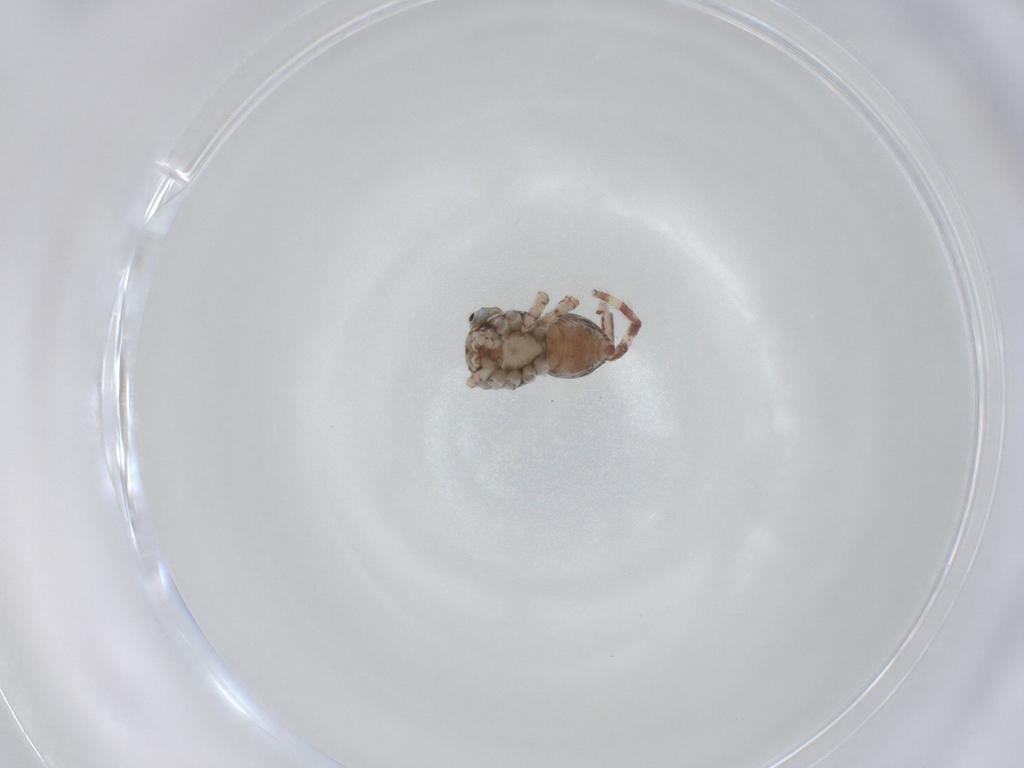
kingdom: Animalia
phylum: Arthropoda
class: Arachnida
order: Araneae
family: Thomisidae
